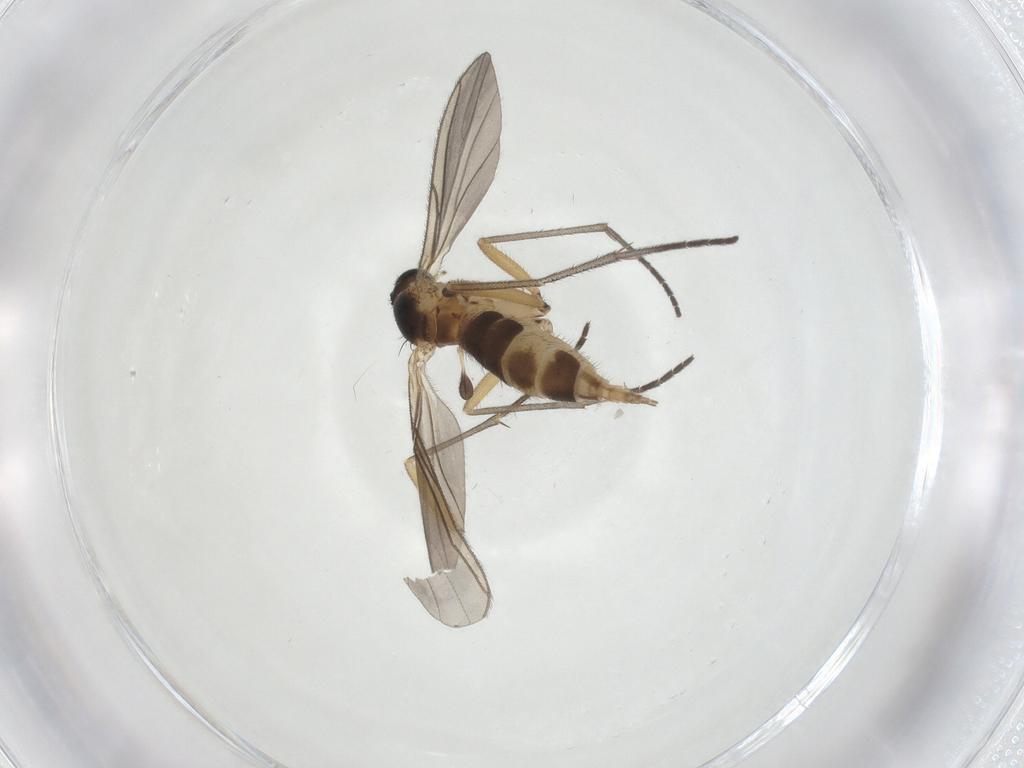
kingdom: Animalia
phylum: Arthropoda
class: Insecta
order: Diptera
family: Sciaridae
